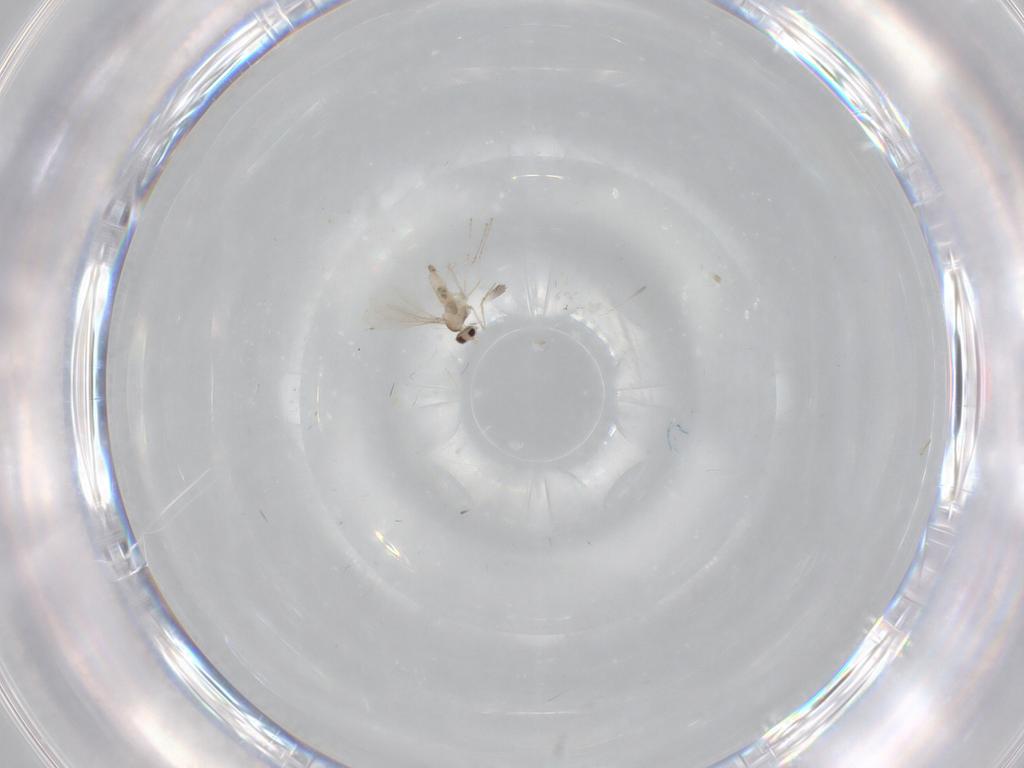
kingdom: Animalia
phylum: Arthropoda
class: Insecta
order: Diptera
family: Cecidomyiidae
